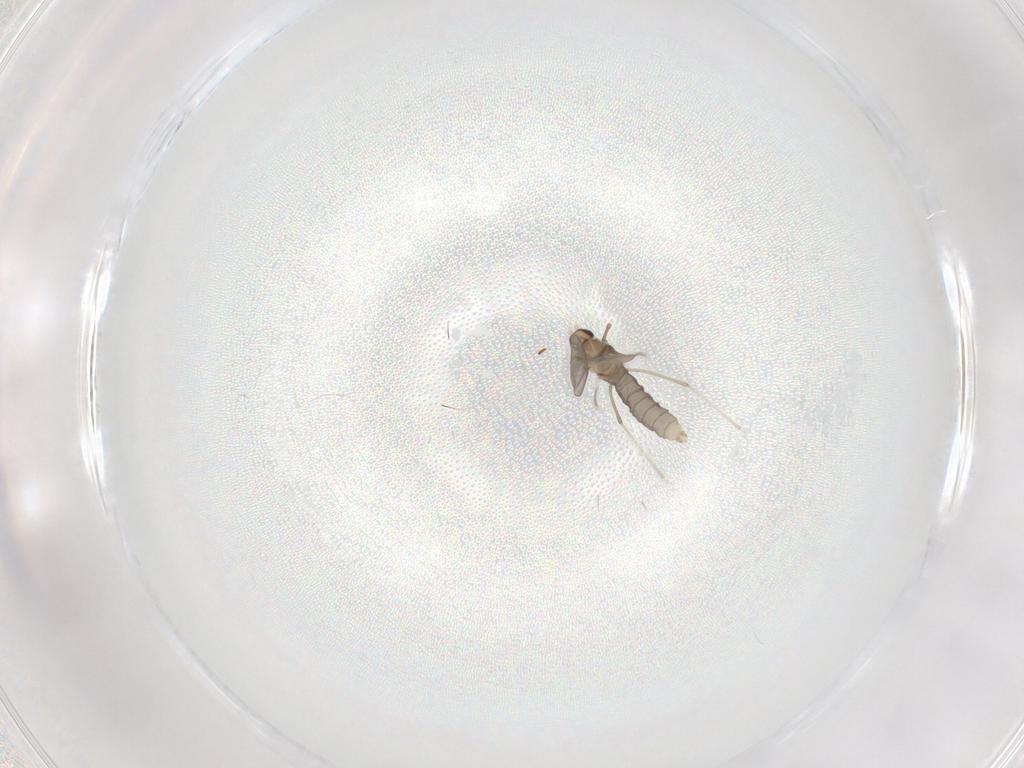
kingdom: Animalia
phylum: Arthropoda
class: Insecta
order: Diptera
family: Cecidomyiidae
